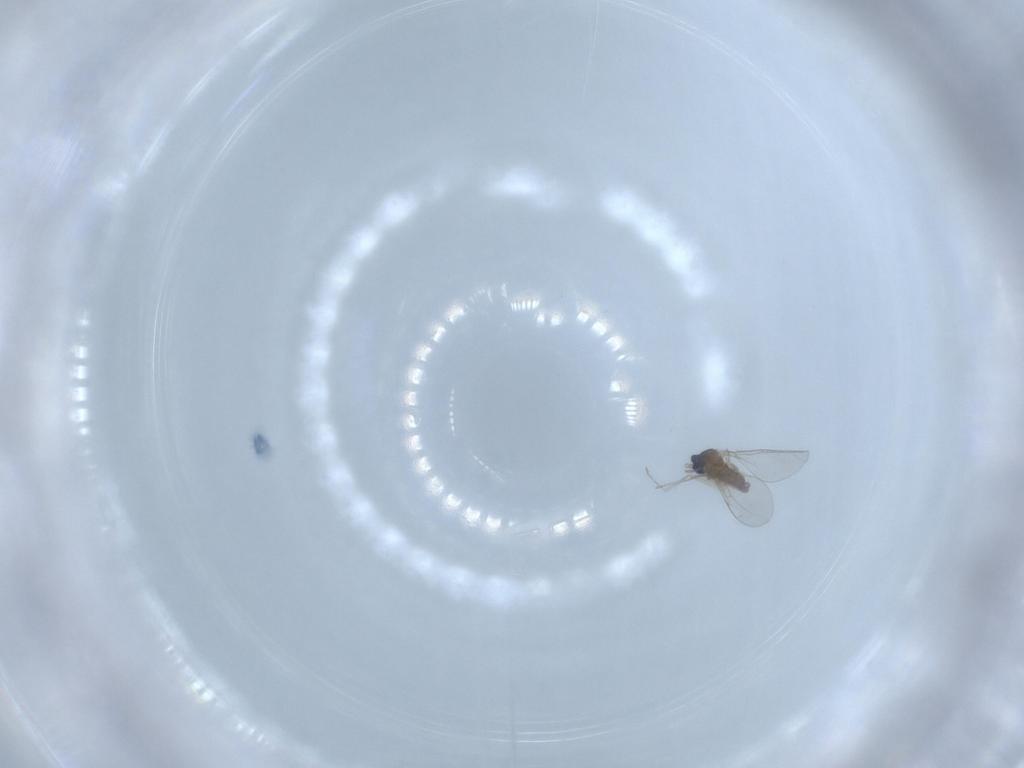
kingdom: Animalia
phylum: Arthropoda
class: Insecta
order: Diptera
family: Cecidomyiidae
